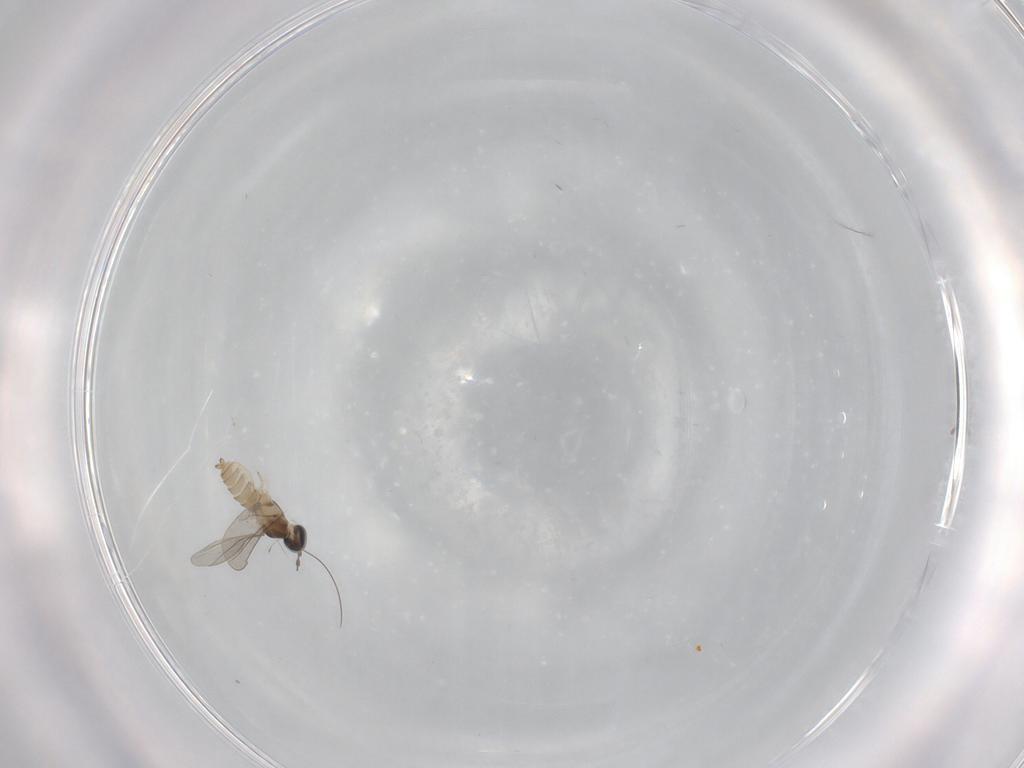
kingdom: Animalia
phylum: Arthropoda
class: Insecta
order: Diptera
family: Cecidomyiidae
